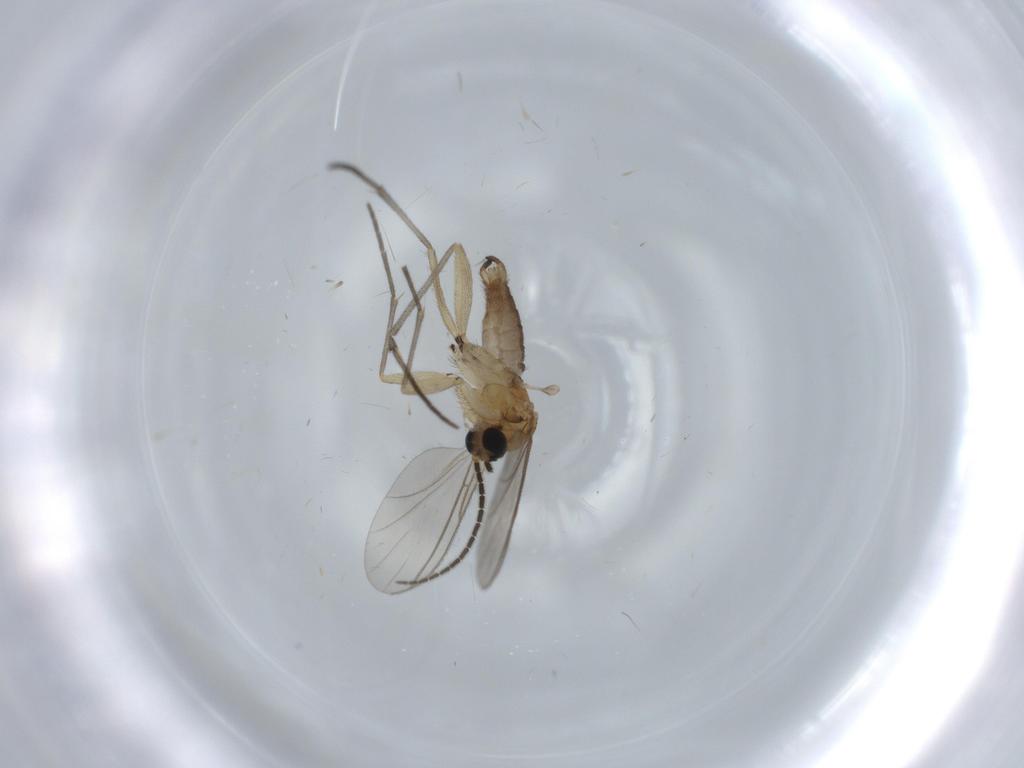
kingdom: Animalia
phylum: Arthropoda
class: Insecta
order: Diptera
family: Sciaridae
